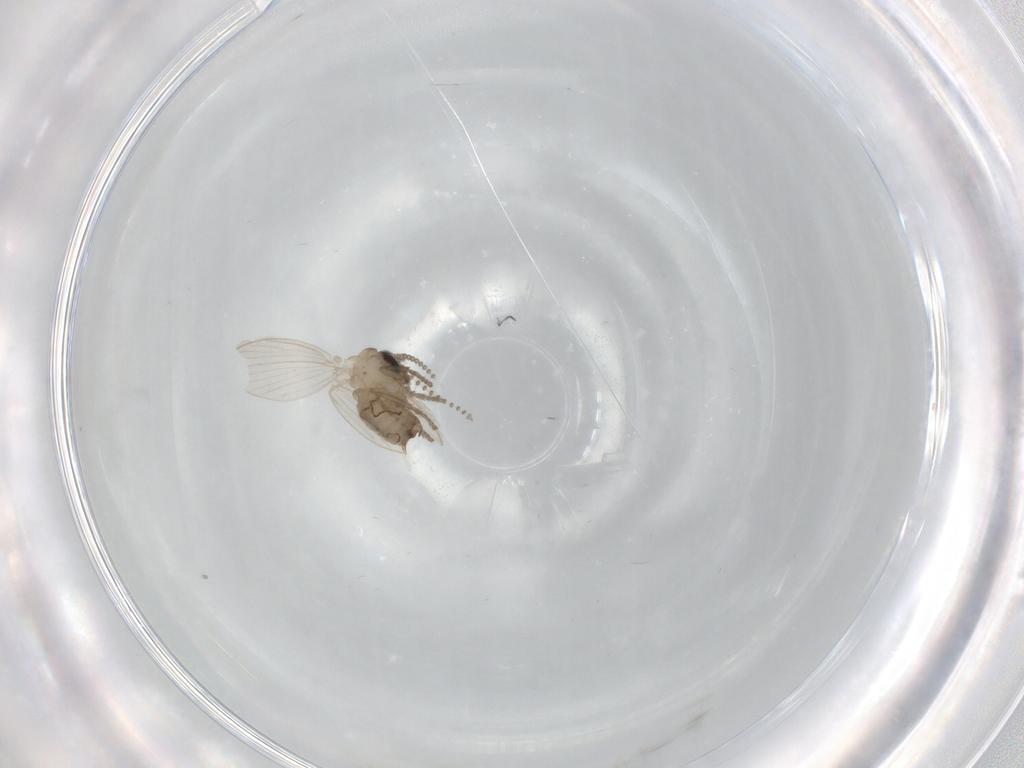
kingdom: Animalia
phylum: Arthropoda
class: Insecta
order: Diptera
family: Psychodidae
